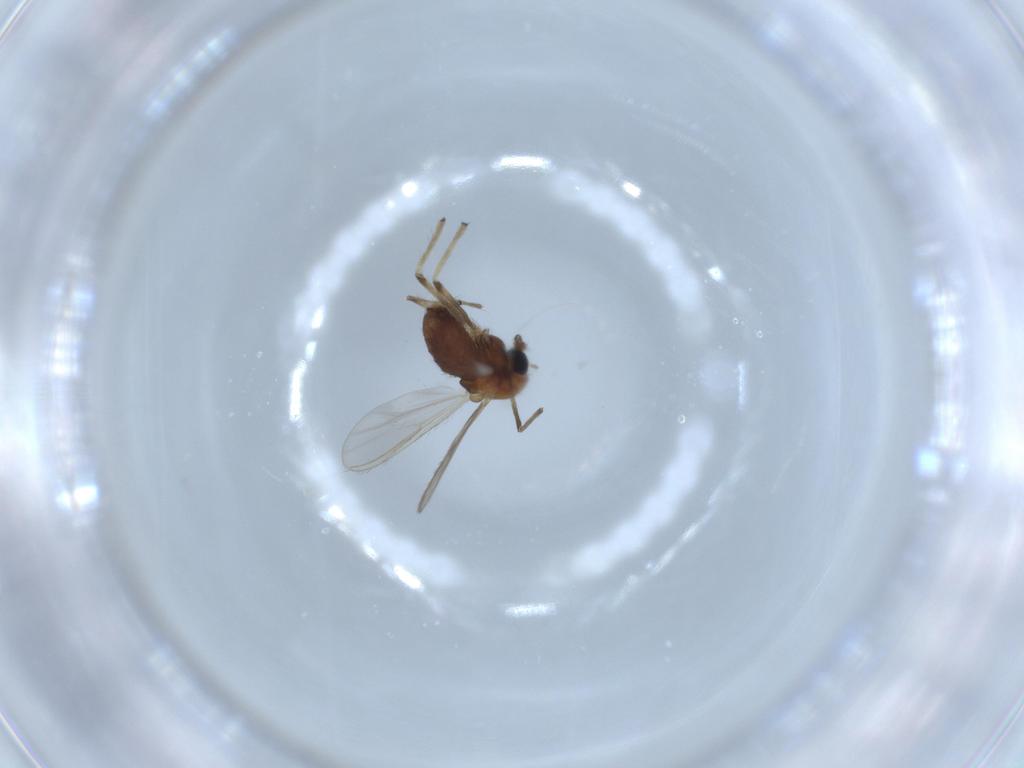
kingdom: Animalia
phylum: Arthropoda
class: Insecta
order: Diptera
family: Chironomidae
